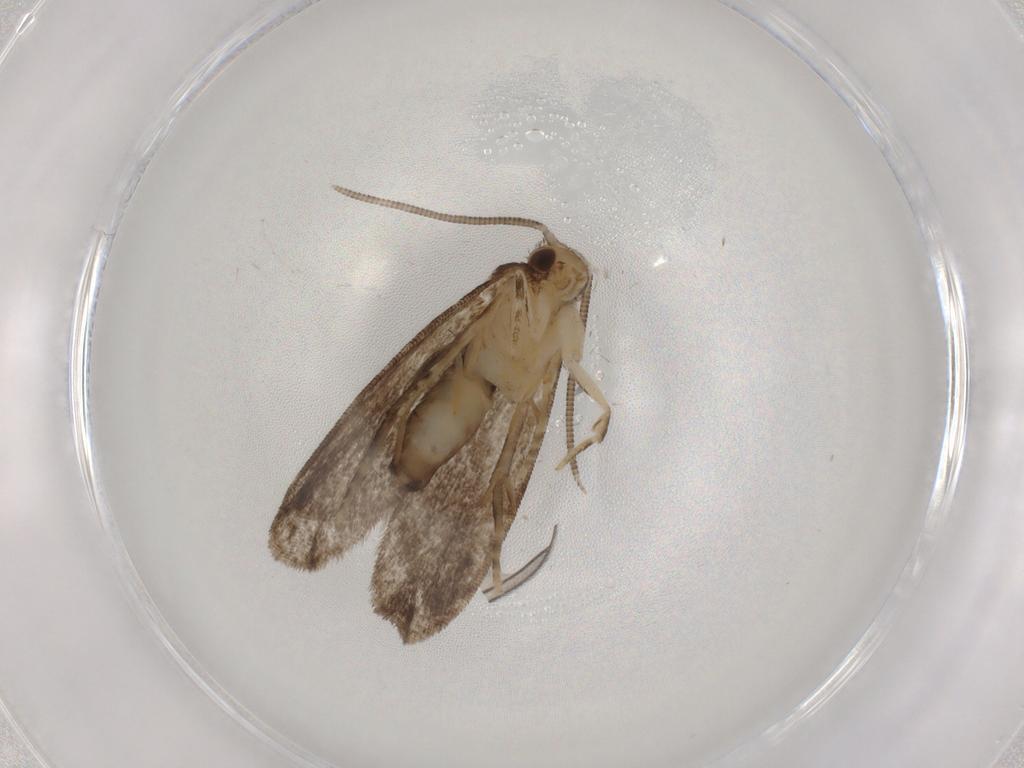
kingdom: Animalia
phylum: Arthropoda
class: Insecta
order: Lepidoptera
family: Dryadaulidae
